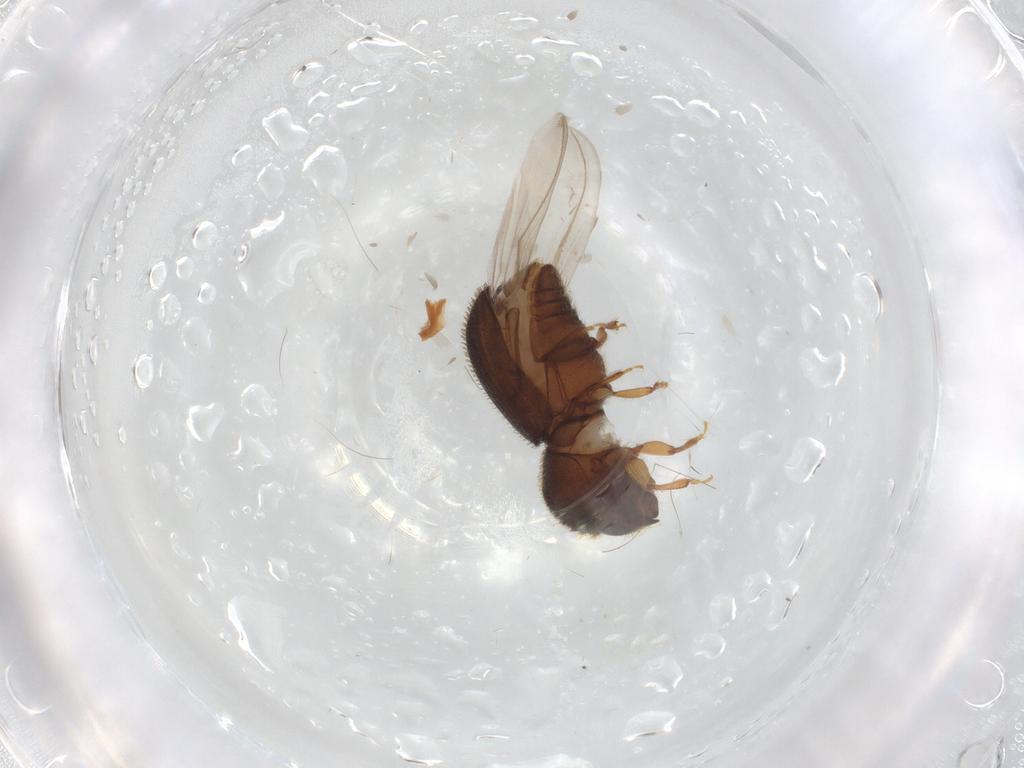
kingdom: Animalia
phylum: Arthropoda
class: Insecta
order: Coleoptera
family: Curculionidae
